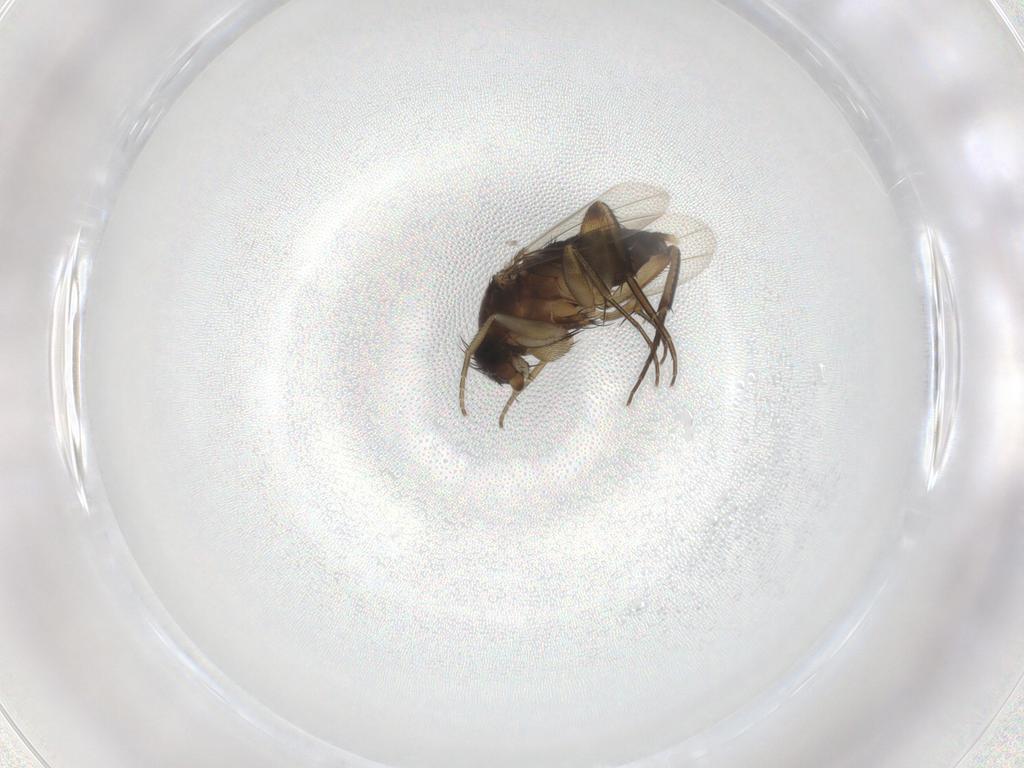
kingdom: Animalia
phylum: Arthropoda
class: Insecta
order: Diptera
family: Phoridae
